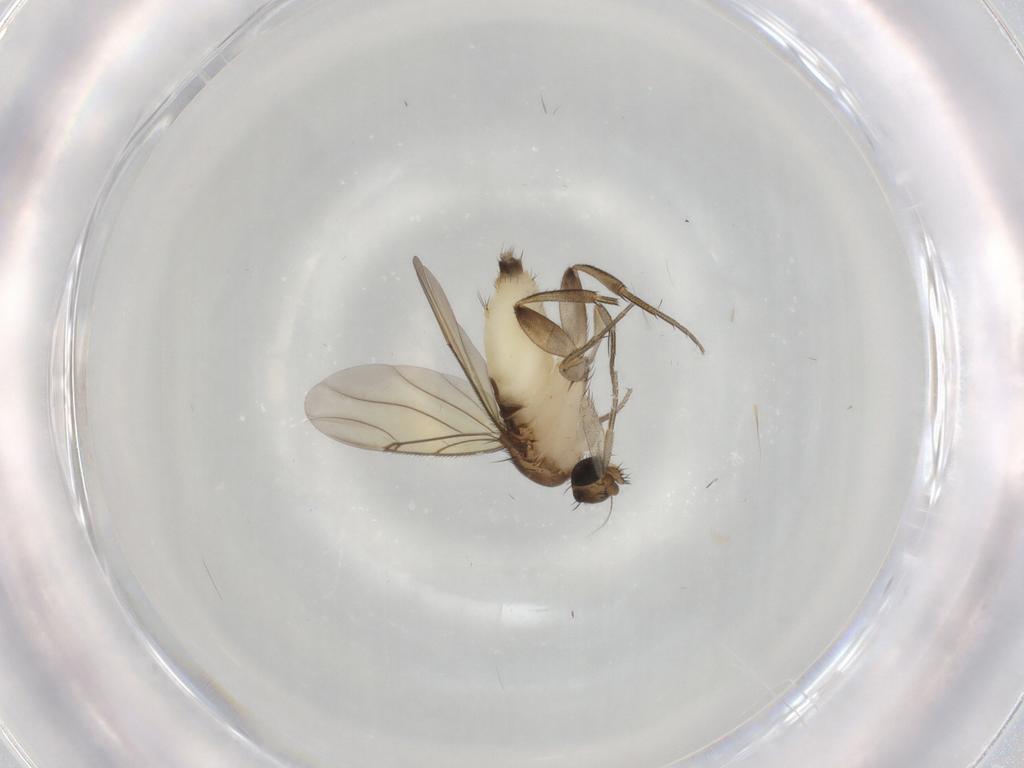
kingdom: Animalia
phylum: Arthropoda
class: Insecta
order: Diptera
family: Phoridae
